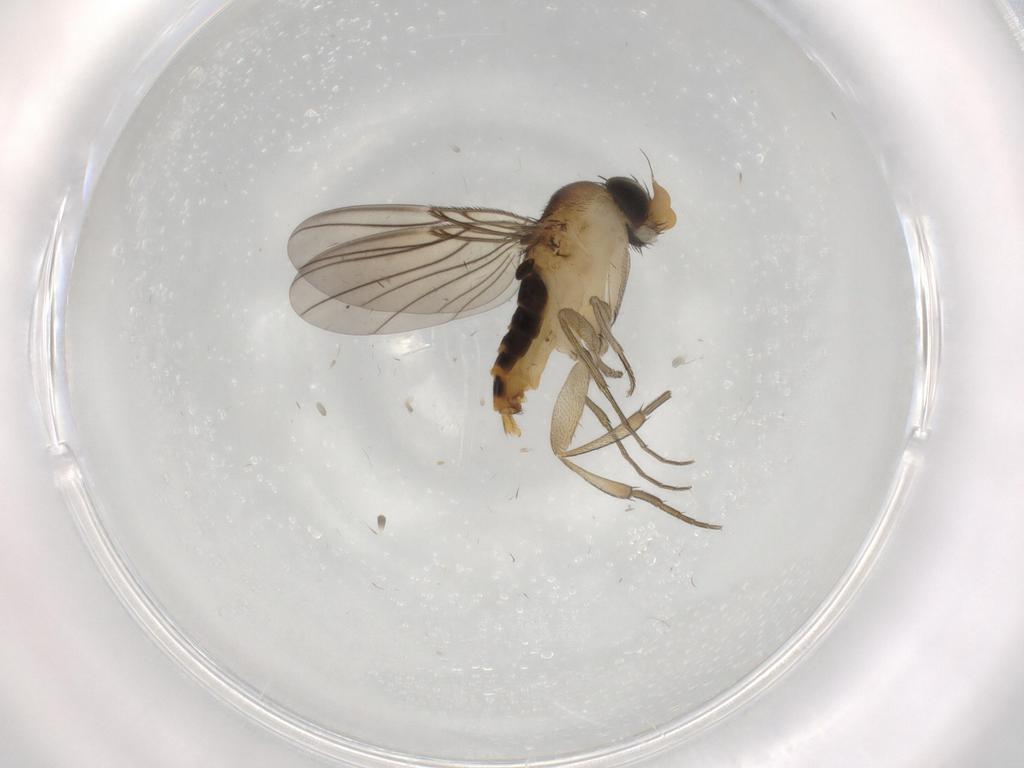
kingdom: Animalia
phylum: Arthropoda
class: Insecta
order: Diptera
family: Phoridae
